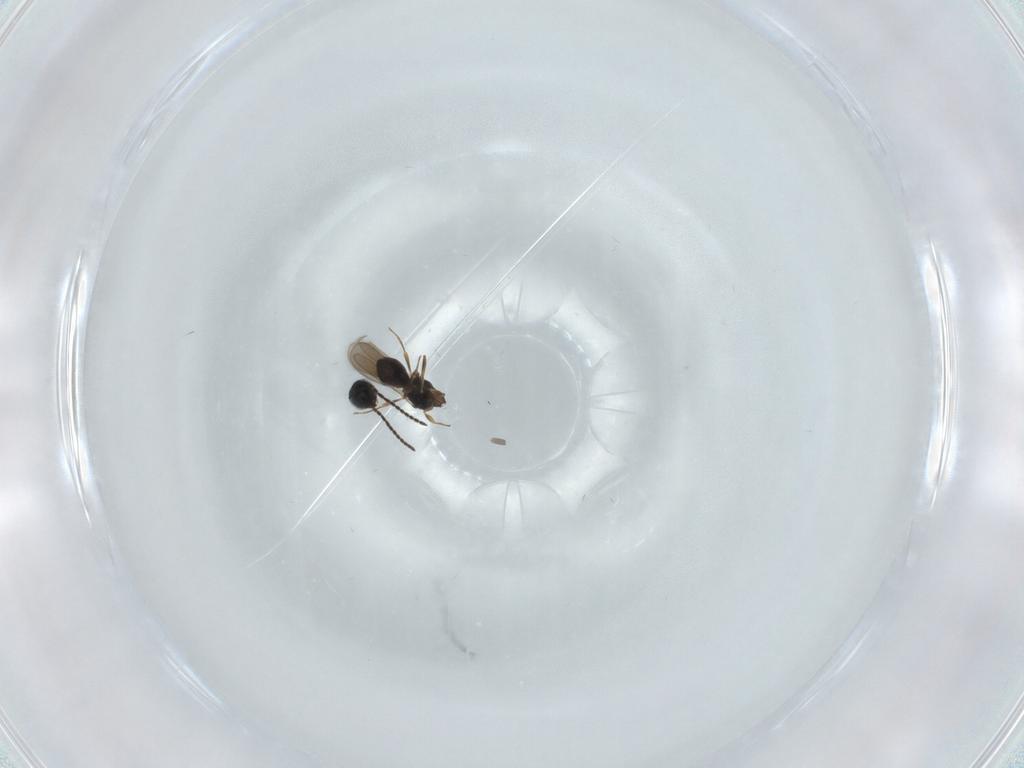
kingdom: Animalia
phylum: Arthropoda
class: Insecta
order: Hymenoptera
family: Scelionidae
